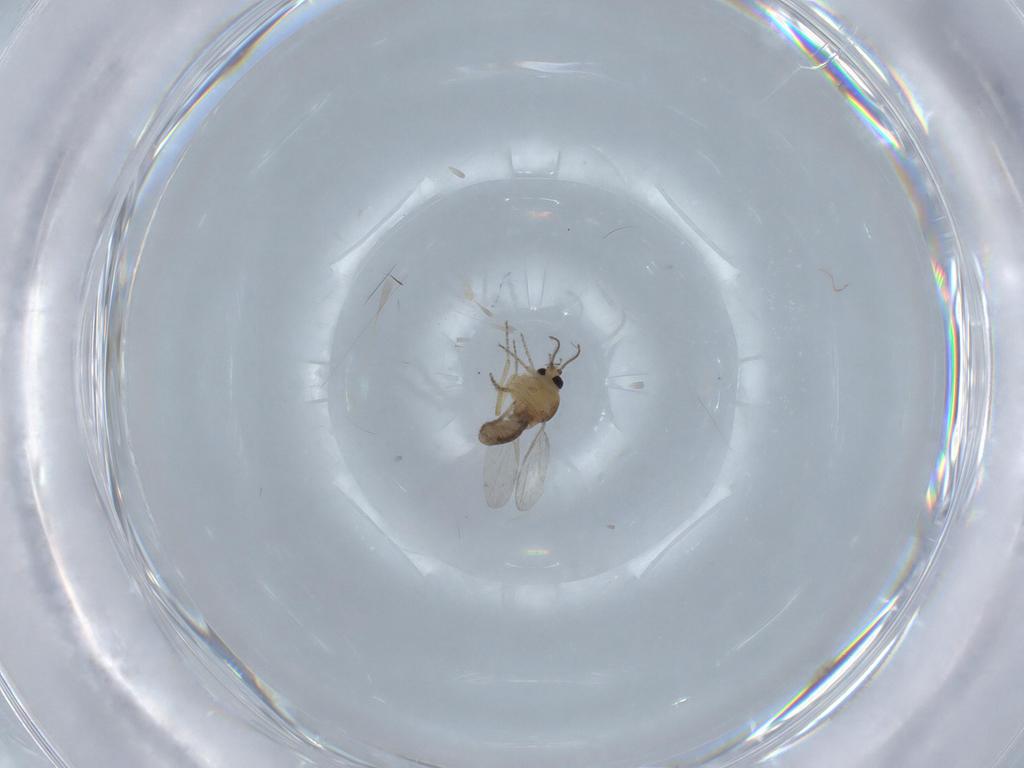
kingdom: Animalia
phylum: Arthropoda
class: Insecta
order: Diptera
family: Ceratopogonidae
